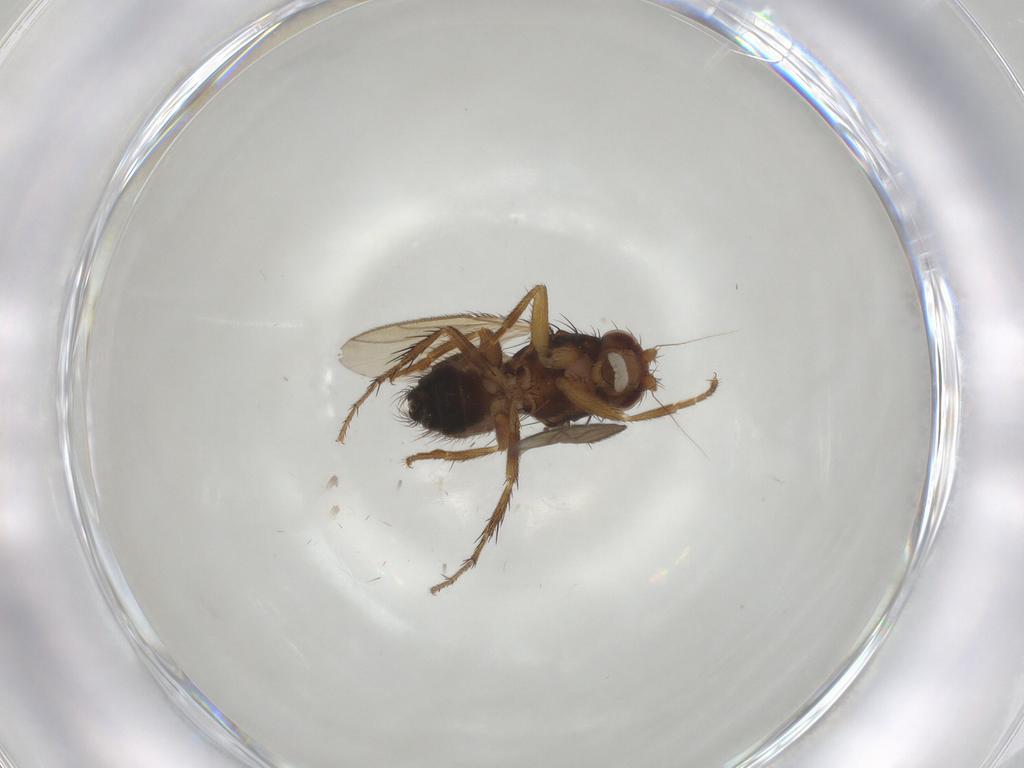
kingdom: Animalia
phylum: Arthropoda
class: Insecta
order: Diptera
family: Sphaeroceridae
